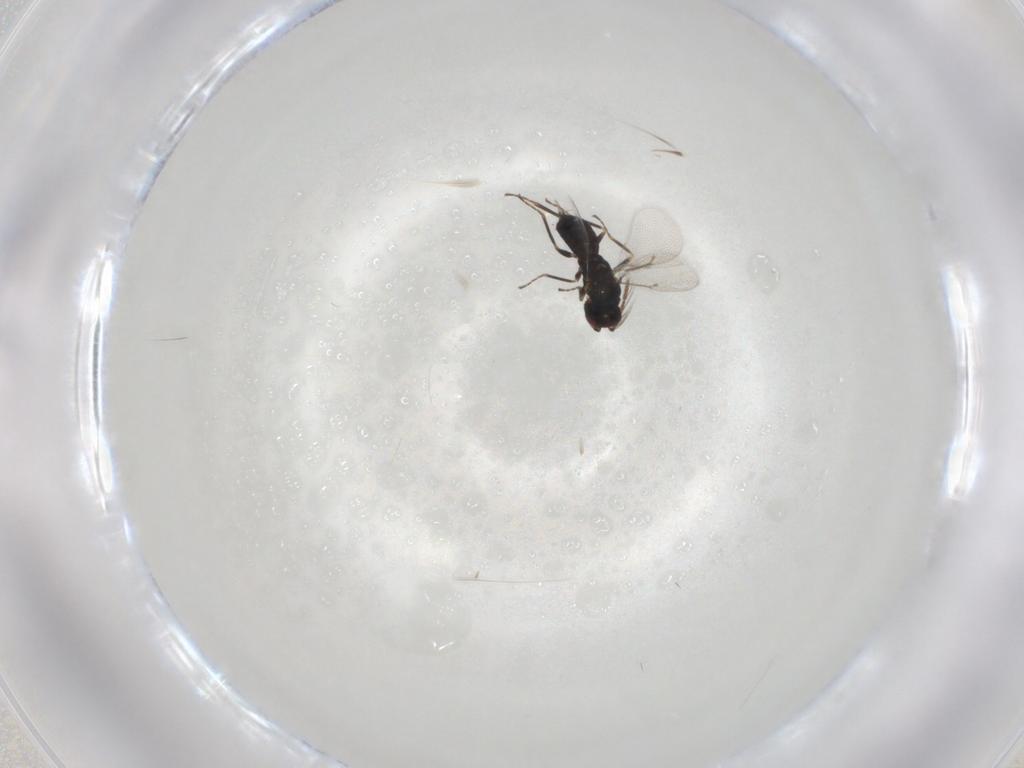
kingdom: Animalia
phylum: Arthropoda
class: Insecta
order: Hymenoptera
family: Eulophidae
